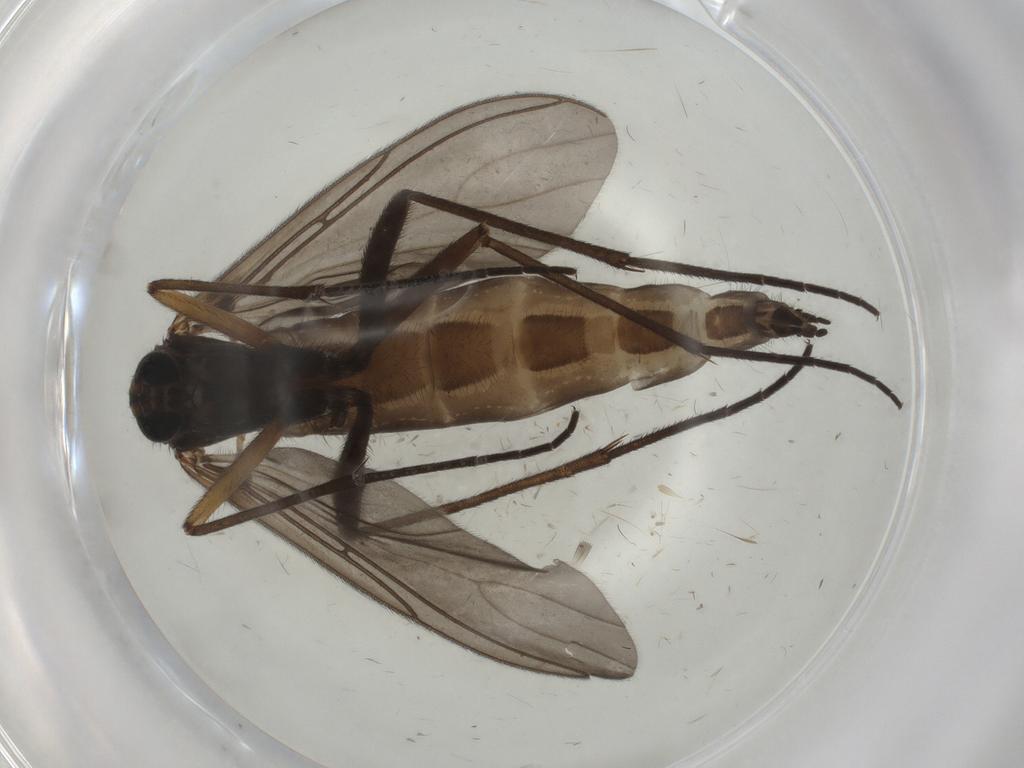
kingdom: Animalia
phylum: Arthropoda
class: Insecta
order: Diptera
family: Sciaridae
